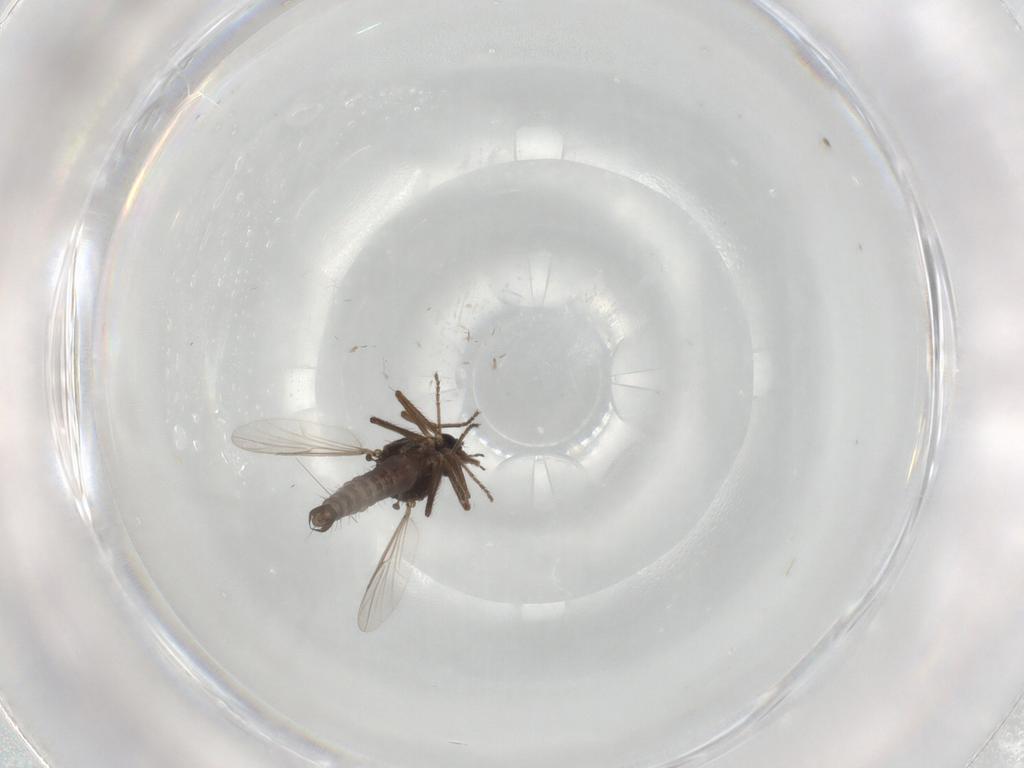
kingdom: Animalia
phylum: Arthropoda
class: Insecta
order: Diptera
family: Ceratopogonidae
